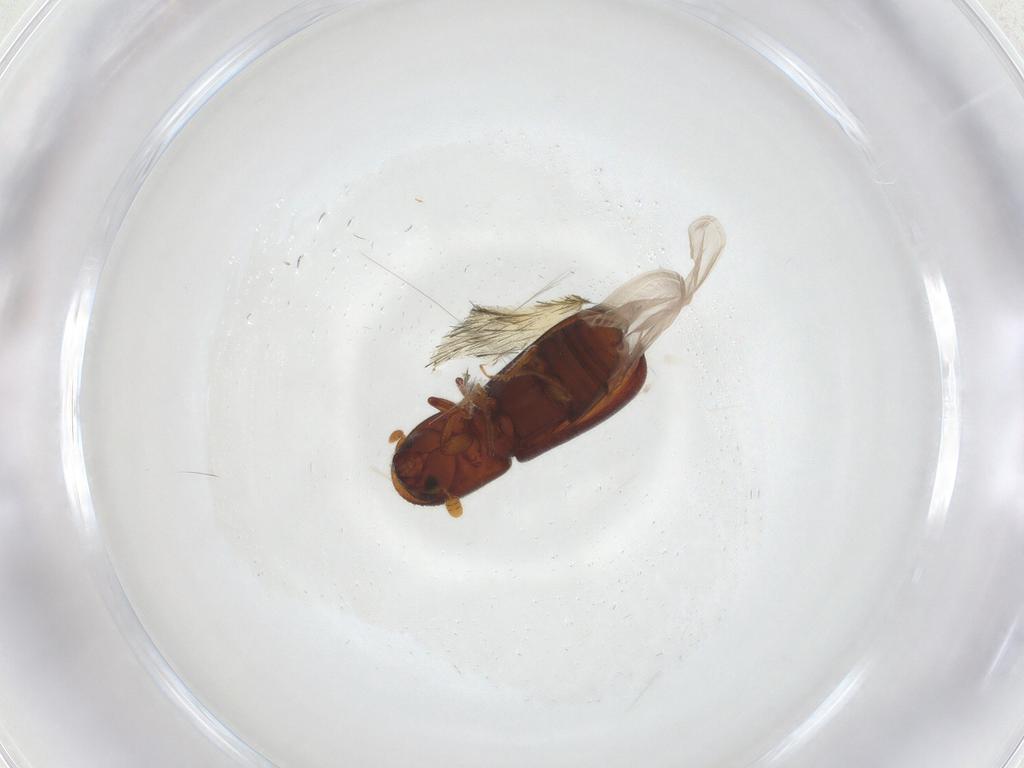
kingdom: Animalia
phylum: Arthropoda
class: Insecta
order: Coleoptera
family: Curculionidae
